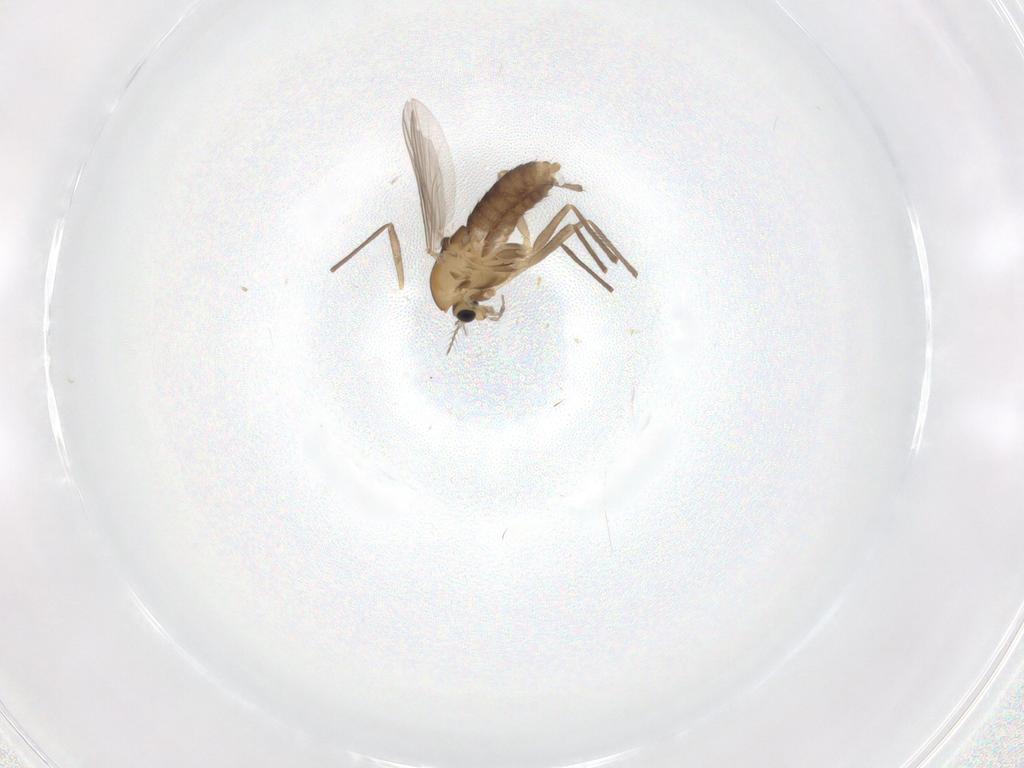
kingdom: Animalia
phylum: Arthropoda
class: Insecta
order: Diptera
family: Chironomidae
